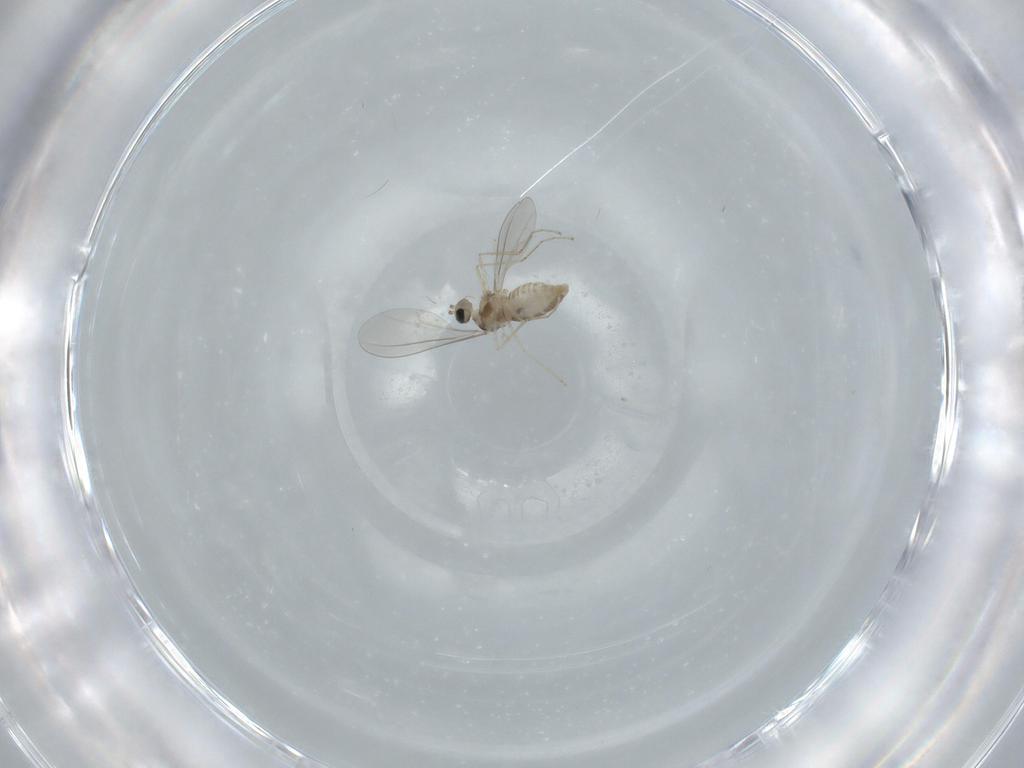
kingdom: Animalia
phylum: Arthropoda
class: Insecta
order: Diptera
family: Cecidomyiidae
